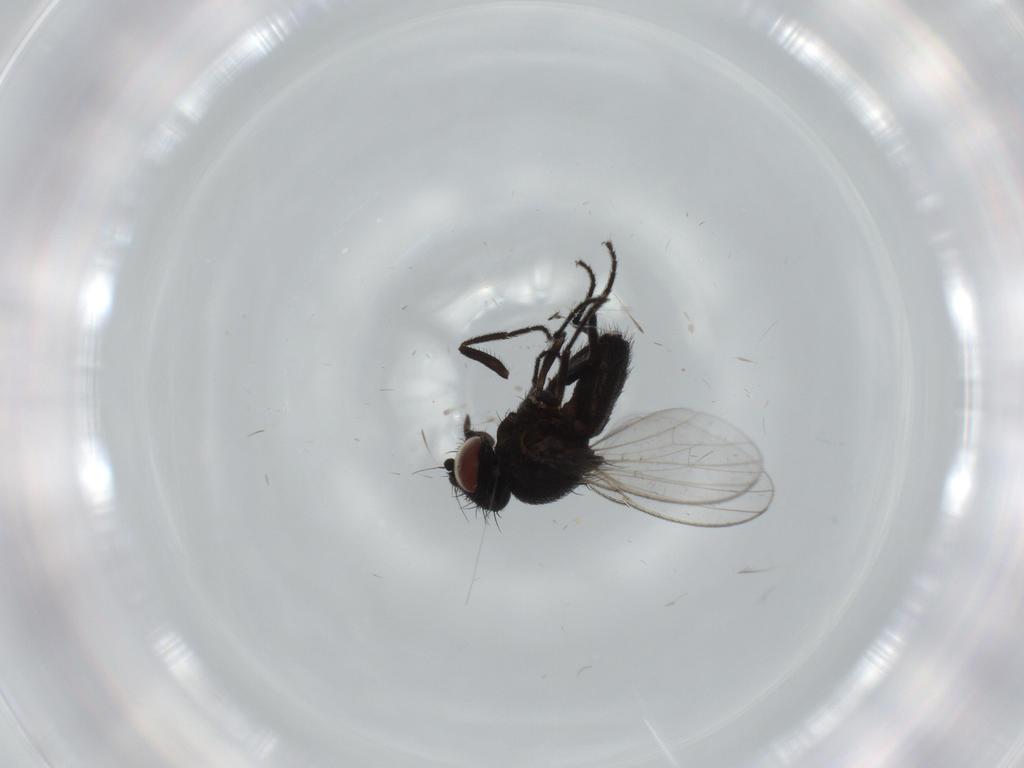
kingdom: Animalia
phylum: Arthropoda
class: Insecta
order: Diptera
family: Milichiidae
